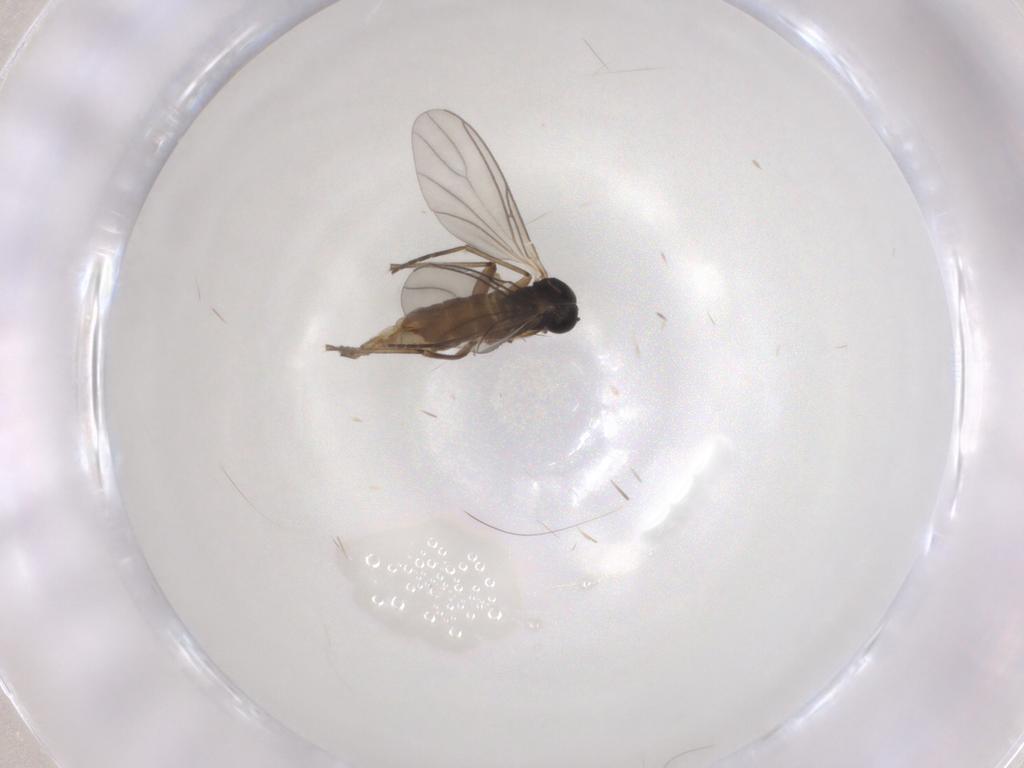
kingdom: Animalia
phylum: Arthropoda
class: Insecta
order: Diptera
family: Sciaridae
